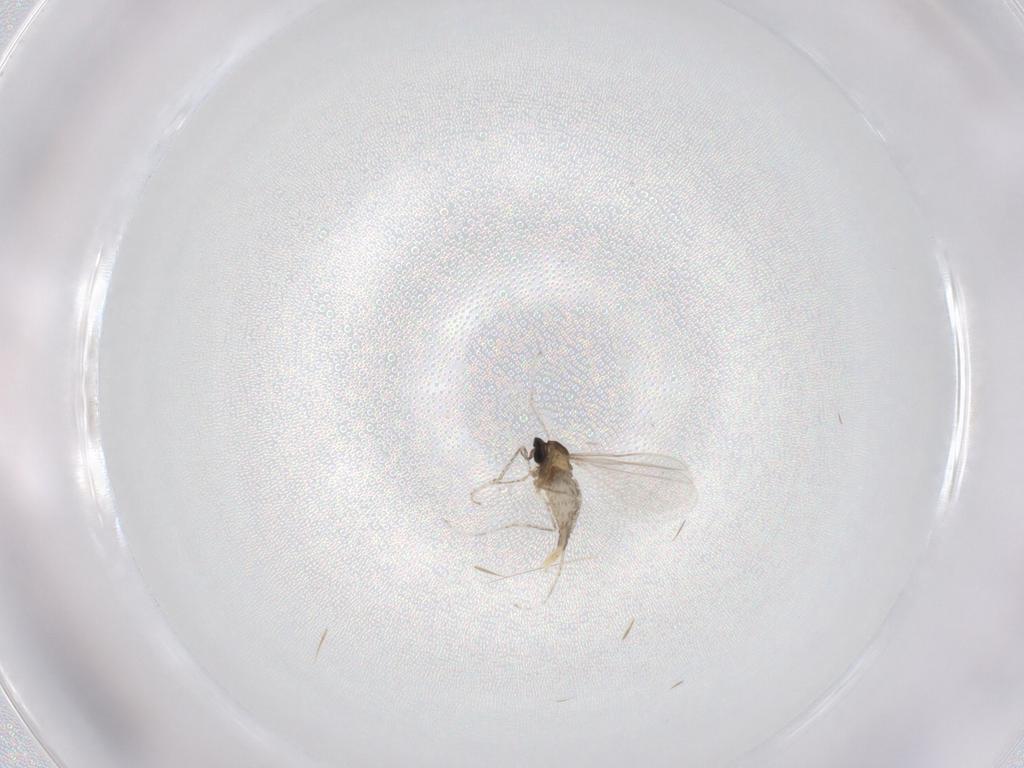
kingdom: Animalia
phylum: Arthropoda
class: Insecta
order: Diptera
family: Cecidomyiidae
